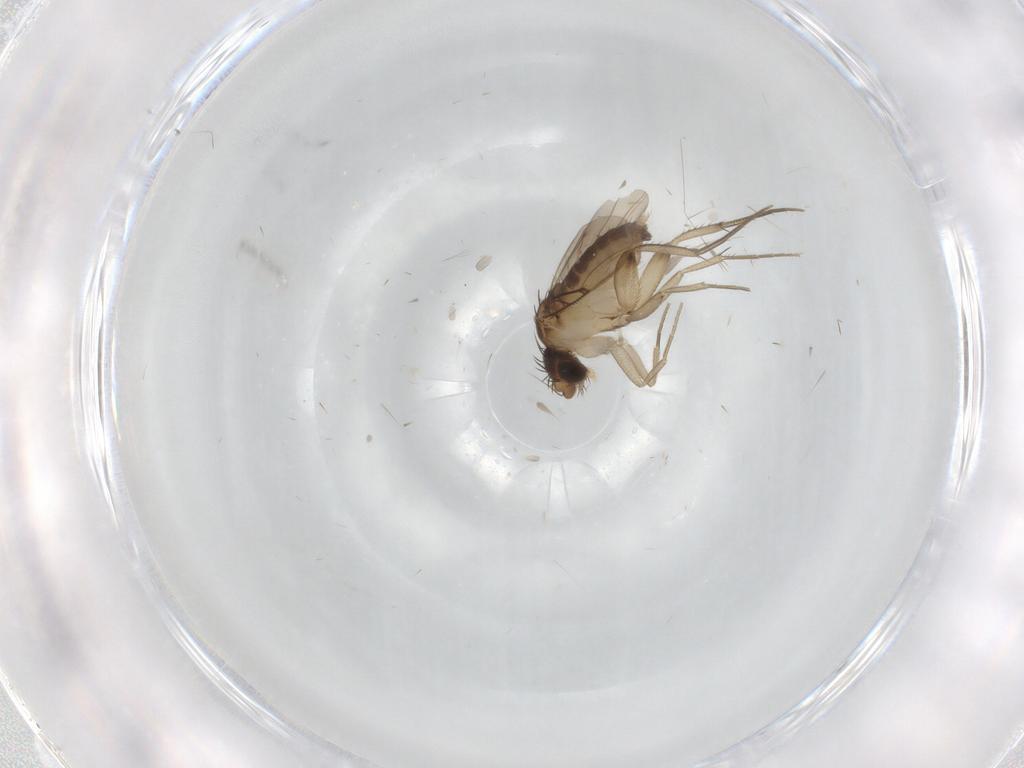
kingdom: Animalia
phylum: Arthropoda
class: Insecta
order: Diptera
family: Phoridae
